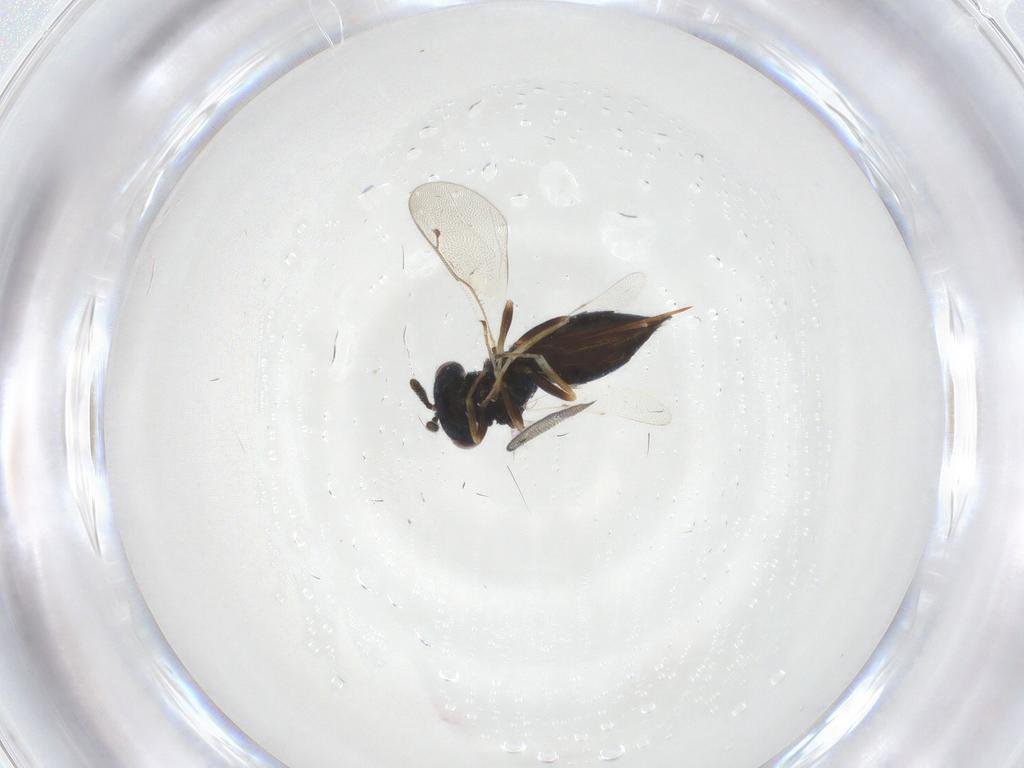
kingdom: Animalia
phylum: Arthropoda
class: Insecta
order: Hymenoptera
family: Pteromalidae
